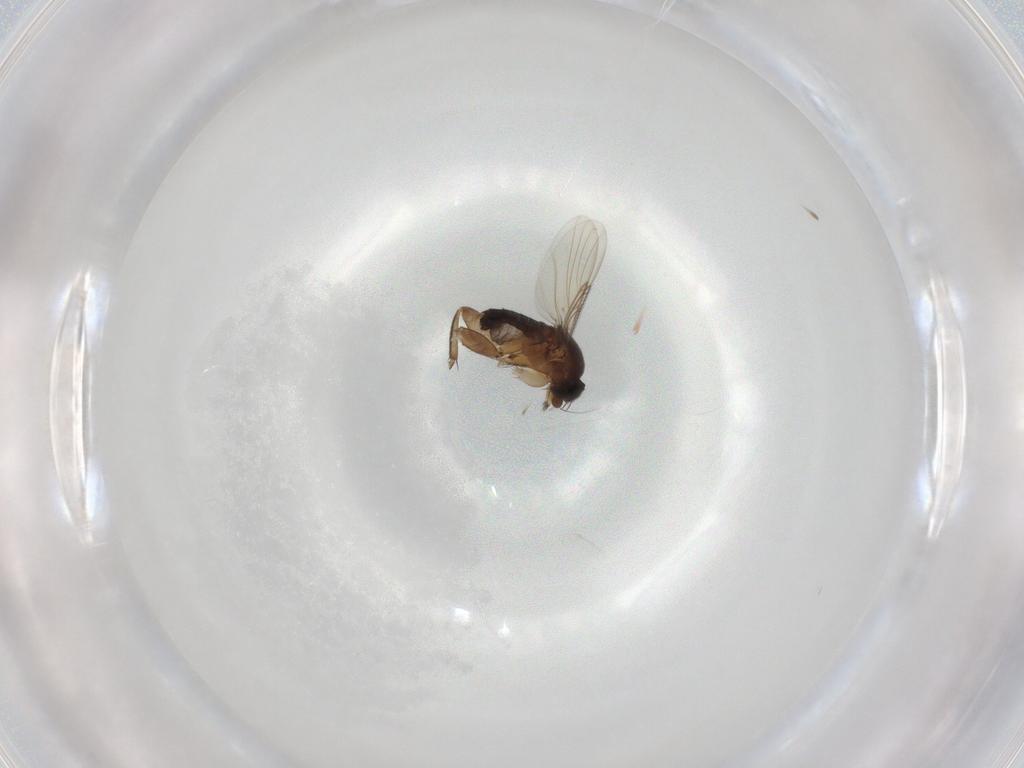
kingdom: Animalia
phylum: Arthropoda
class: Insecta
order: Diptera
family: Phoridae
